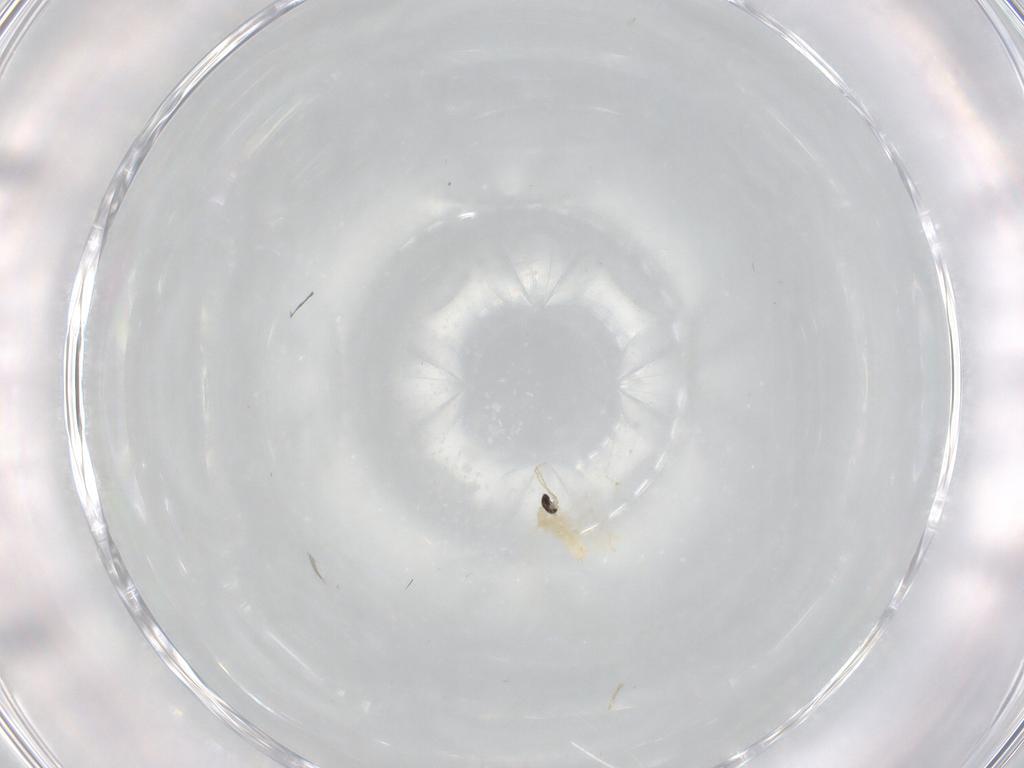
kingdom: Animalia
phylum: Arthropoda
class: Insecta
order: Diptera
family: Cecidomyiidae
